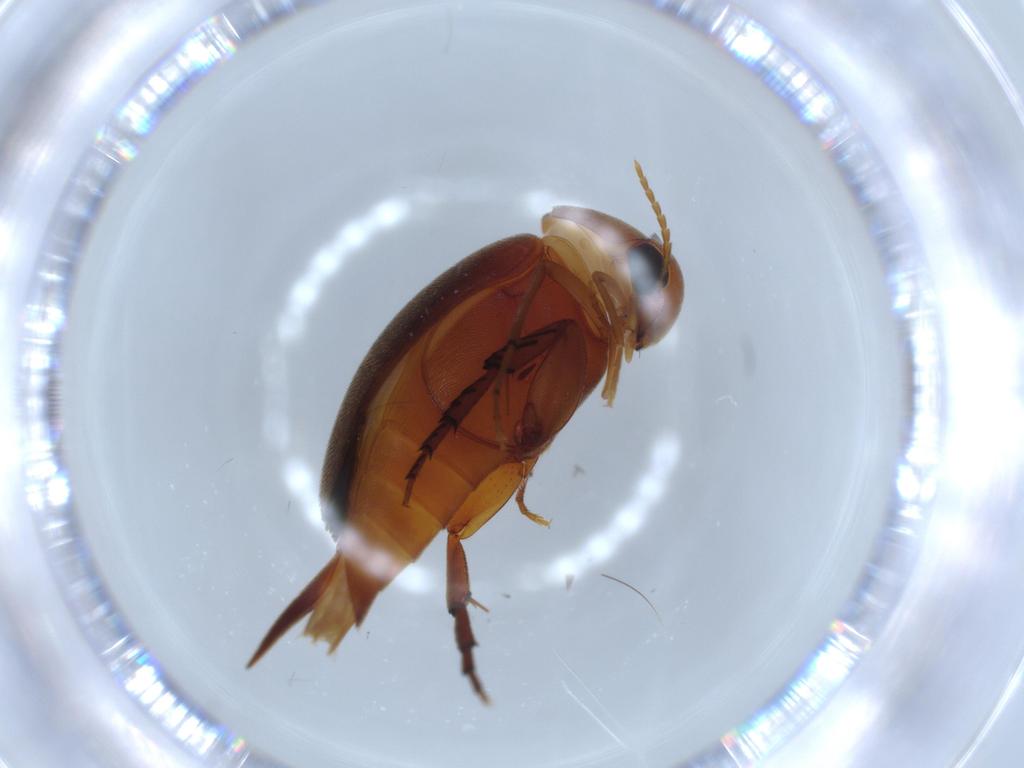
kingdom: Animalia
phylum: Arthropoda
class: Insecta
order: Coleoptera
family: Mordellidae
